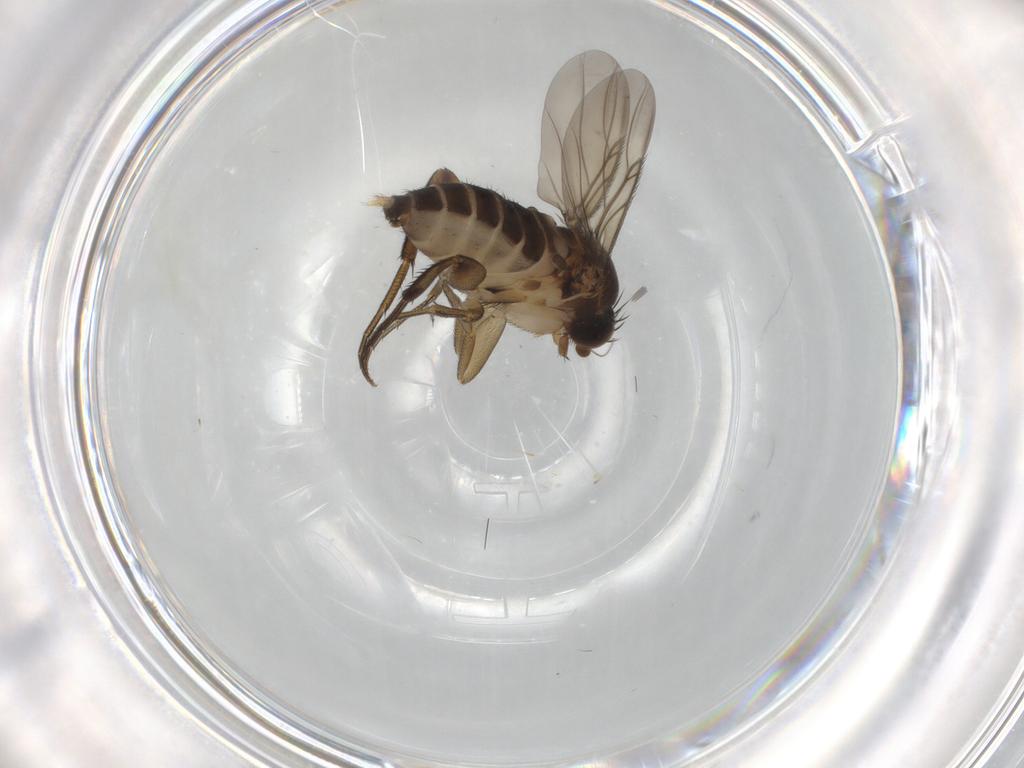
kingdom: Animalia
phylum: Arthropoda
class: Insecta
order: Diptera
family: Phoridae
